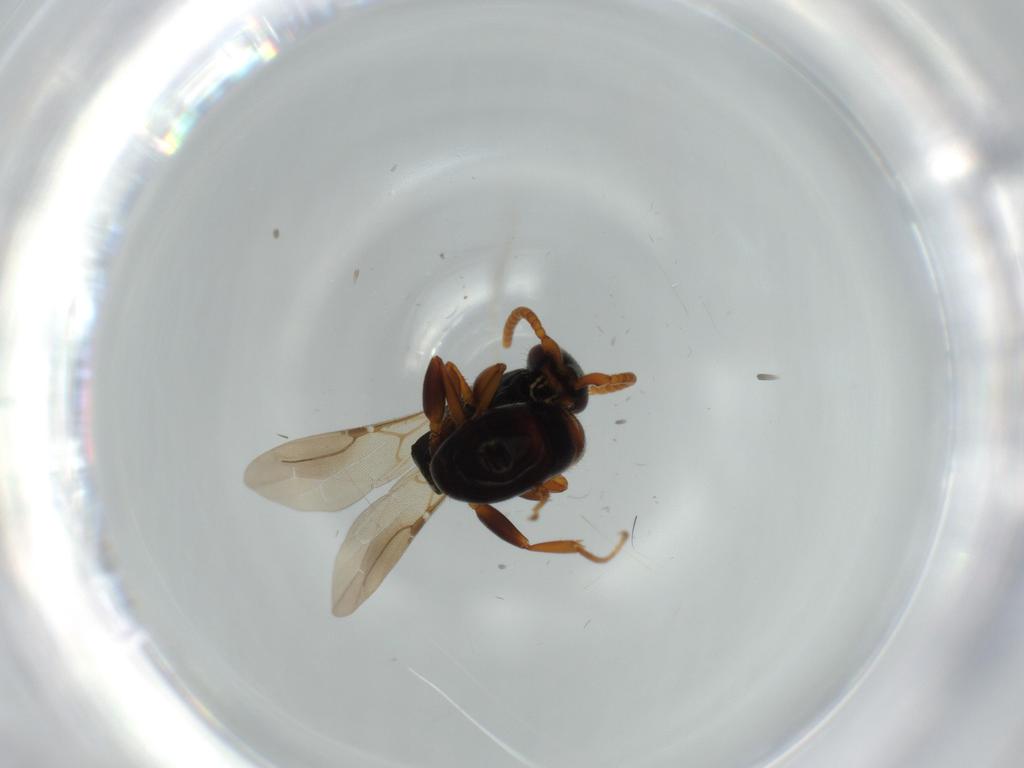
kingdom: Animalia
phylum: Arthropoda
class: Insecta
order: Hymenoptera
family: Bethylidae
